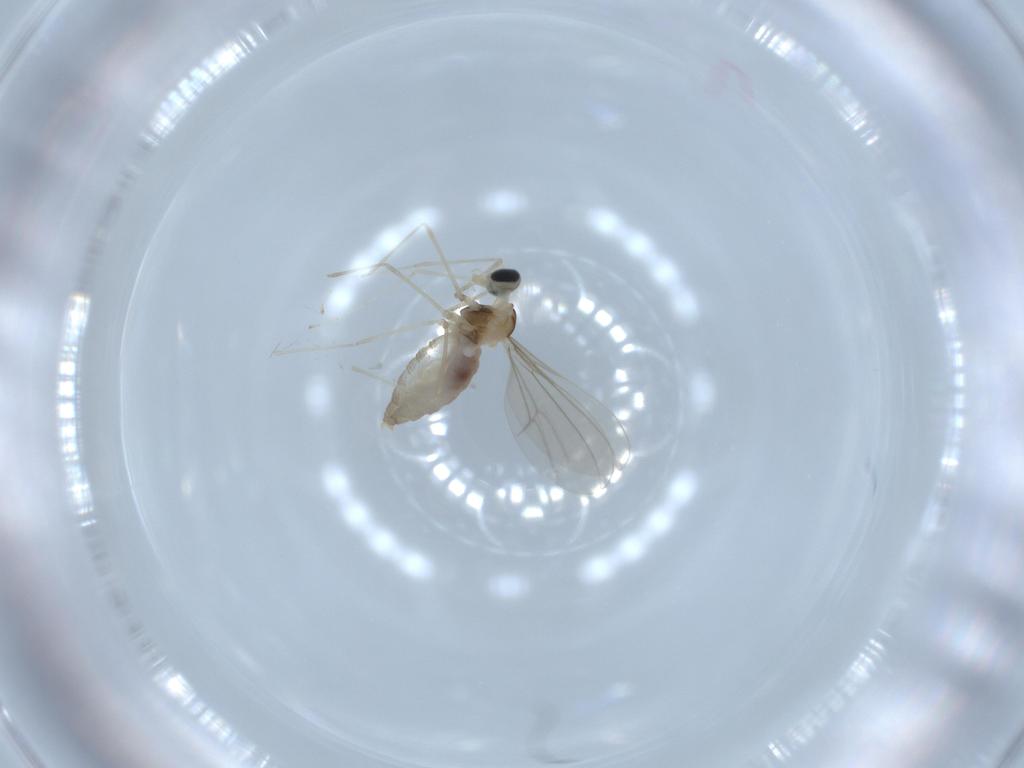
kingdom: Animalia
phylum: Arthropoda
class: Insecta
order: Diptera
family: Cecidomyiidae
